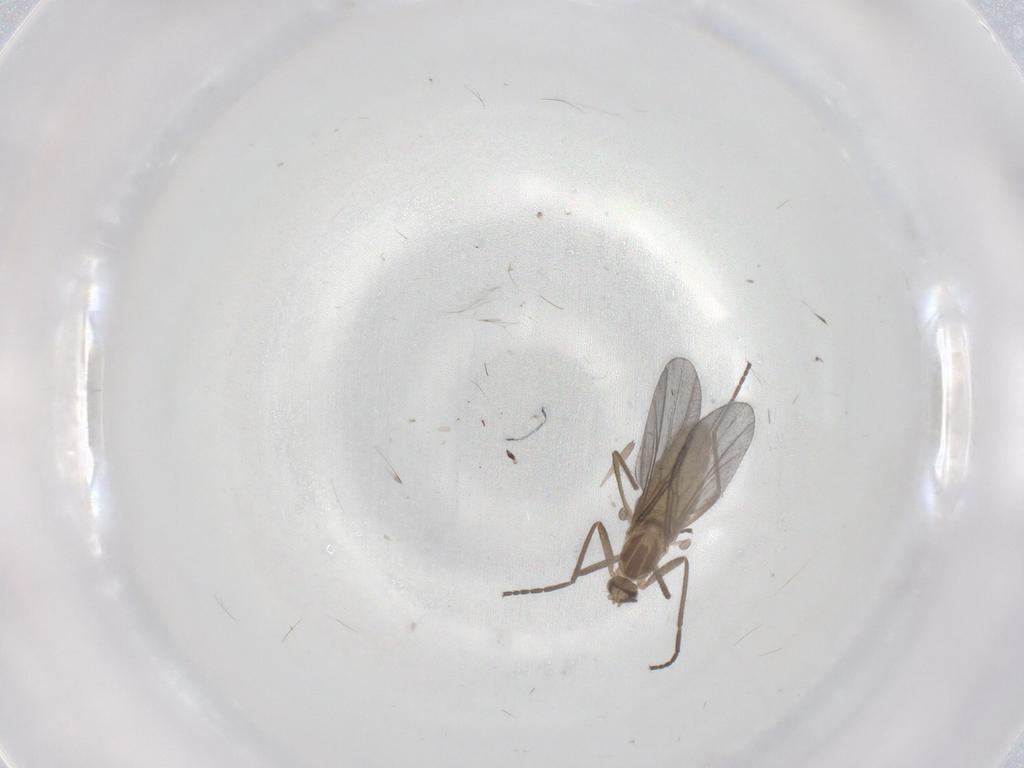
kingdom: Animalia
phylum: Arthropoda
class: Insecta
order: Diptera
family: Cecidomyiidae
